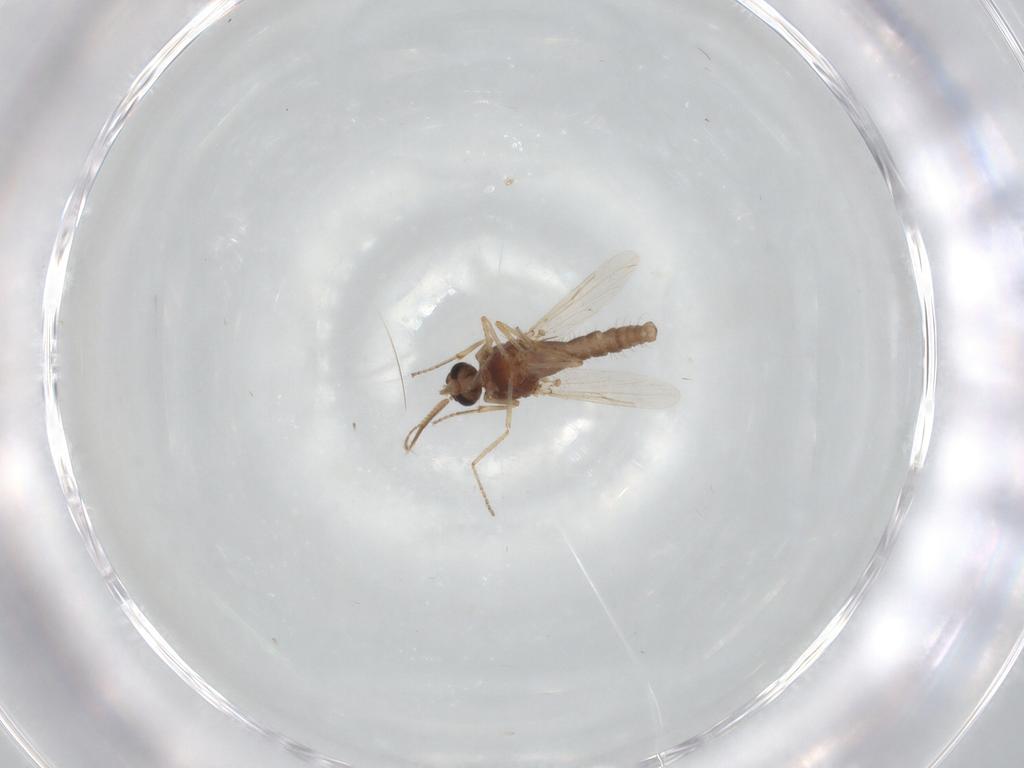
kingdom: Animalia
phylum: Arthropoda
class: Insecta
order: Diptera
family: Ceratopogonidae
